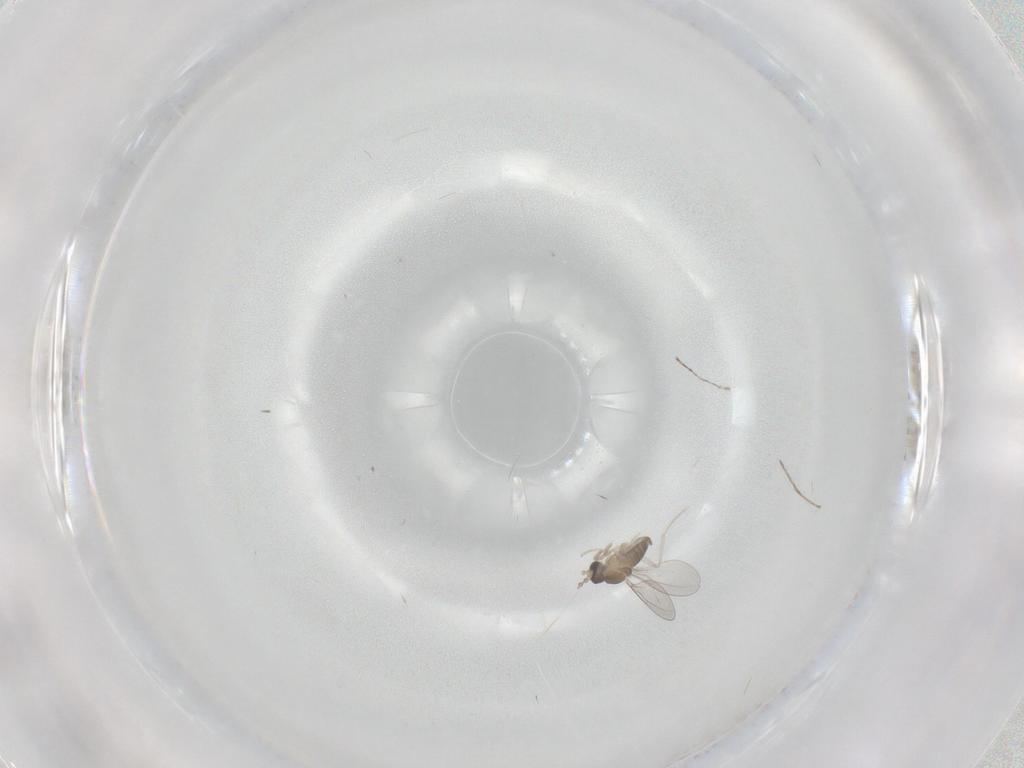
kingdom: Animalia
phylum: Arthropoda
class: Insecta
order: Diptera
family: Cecidomyiidae
